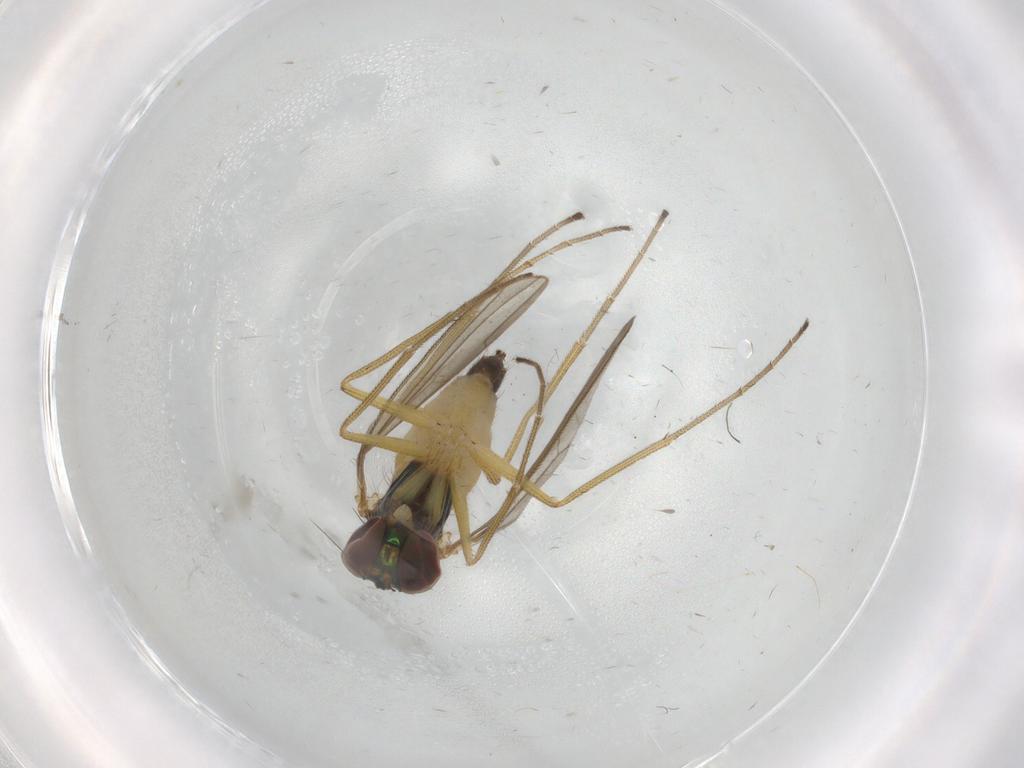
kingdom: Animalia
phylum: Arthropoda
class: Insecta
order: Diptera
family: Dolichopodidae
